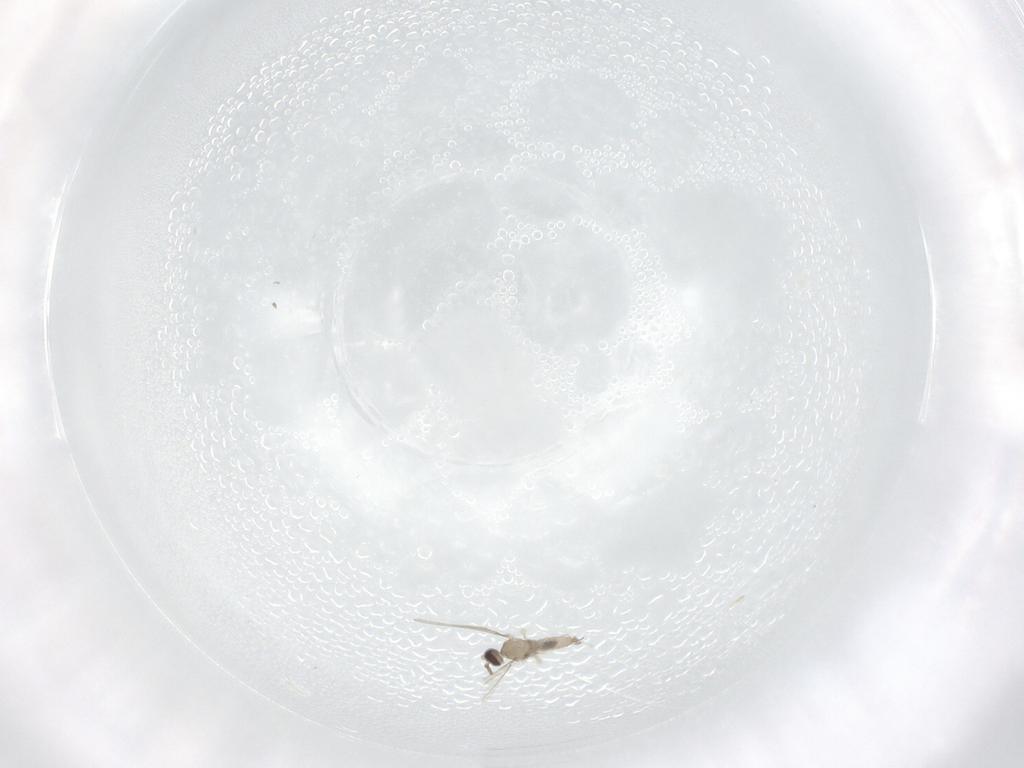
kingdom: Animalia
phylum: Arthropoda
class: Insecta
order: Diptera
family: Cecidomyiidae
